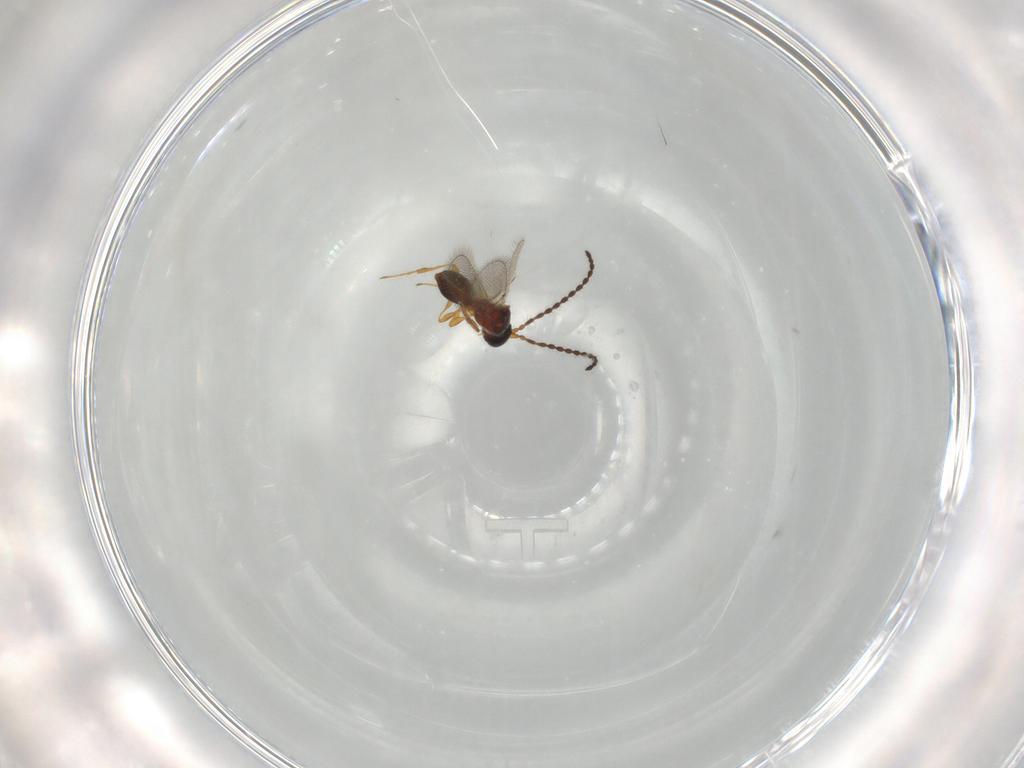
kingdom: Animalia
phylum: Arthropoda
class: Insecta
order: Hymenoptera
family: Diapriidae
